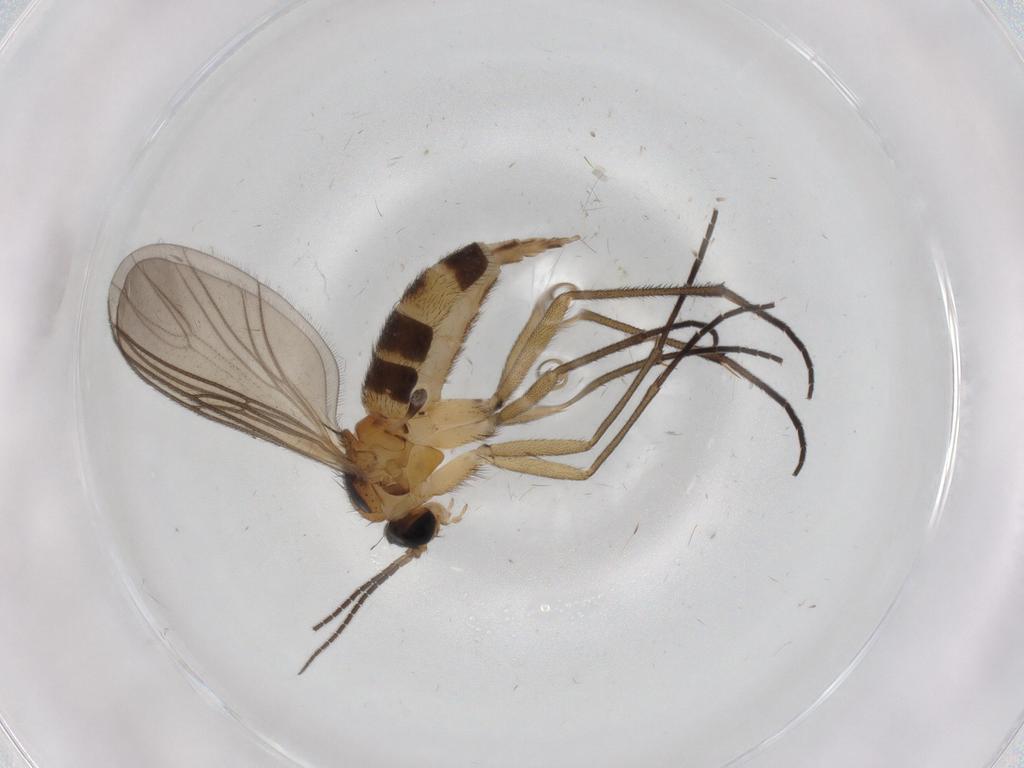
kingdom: Animalia
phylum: Arthropoda
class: Insecta
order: Diptera
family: Sciaridae
